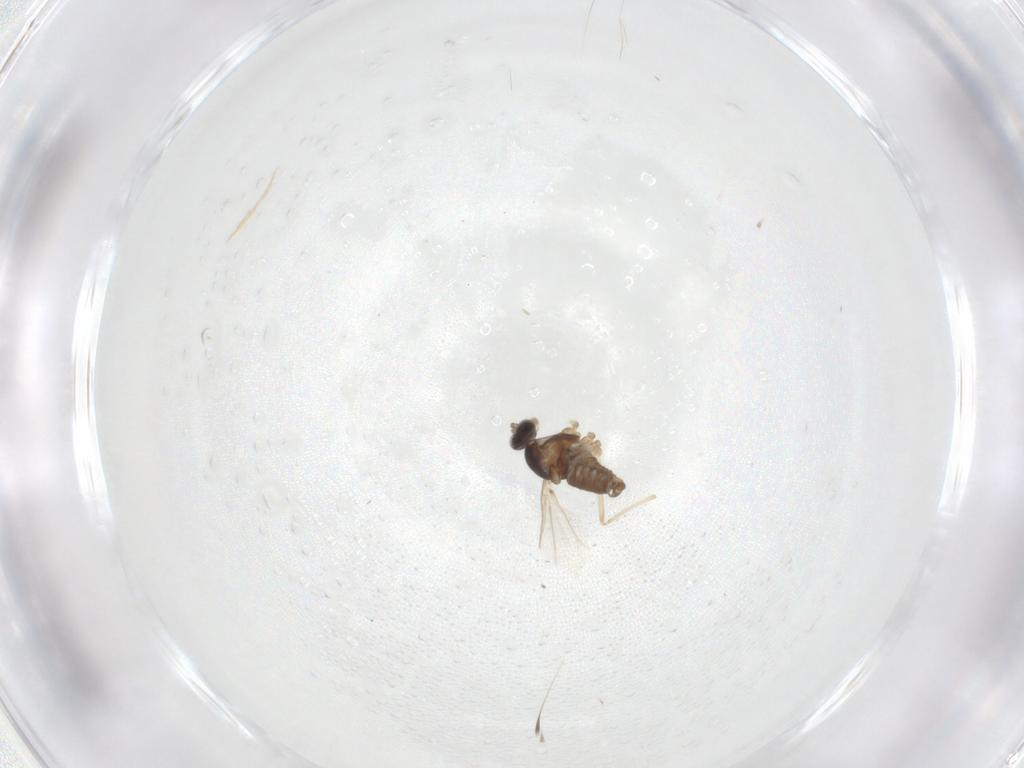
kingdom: Animalia
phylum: Arthropoda
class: Insecta
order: Diptera
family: Cecidomyiidae
